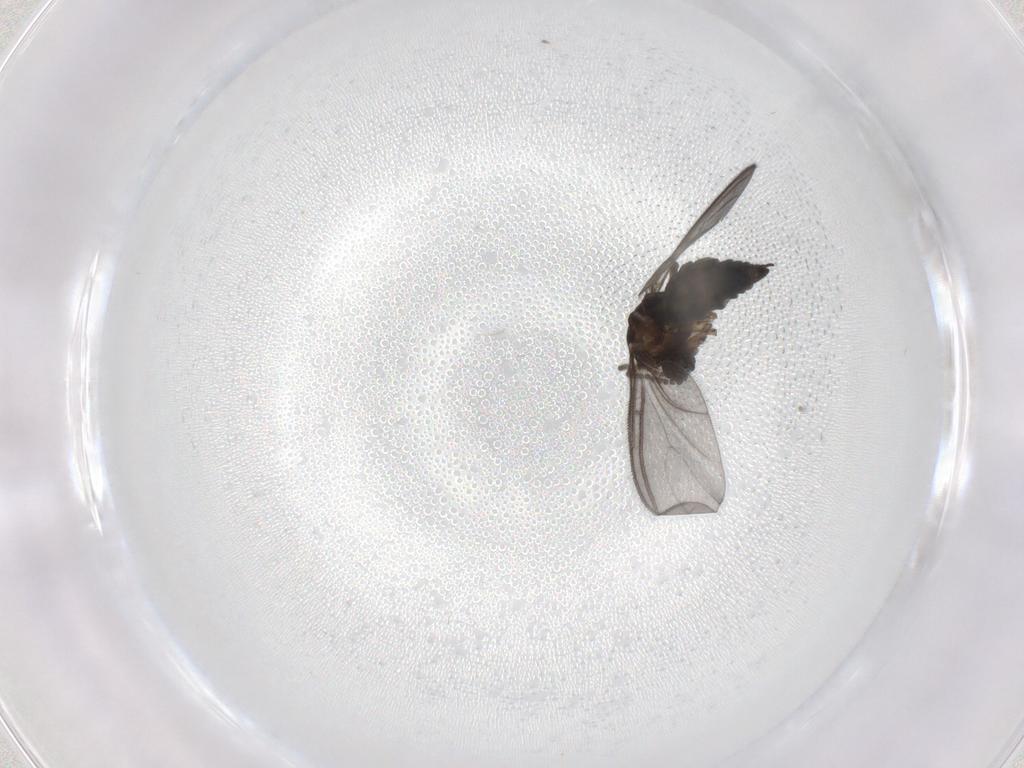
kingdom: Animalia
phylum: Arthropoda
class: Insecta
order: Diptera
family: Sciaridae
